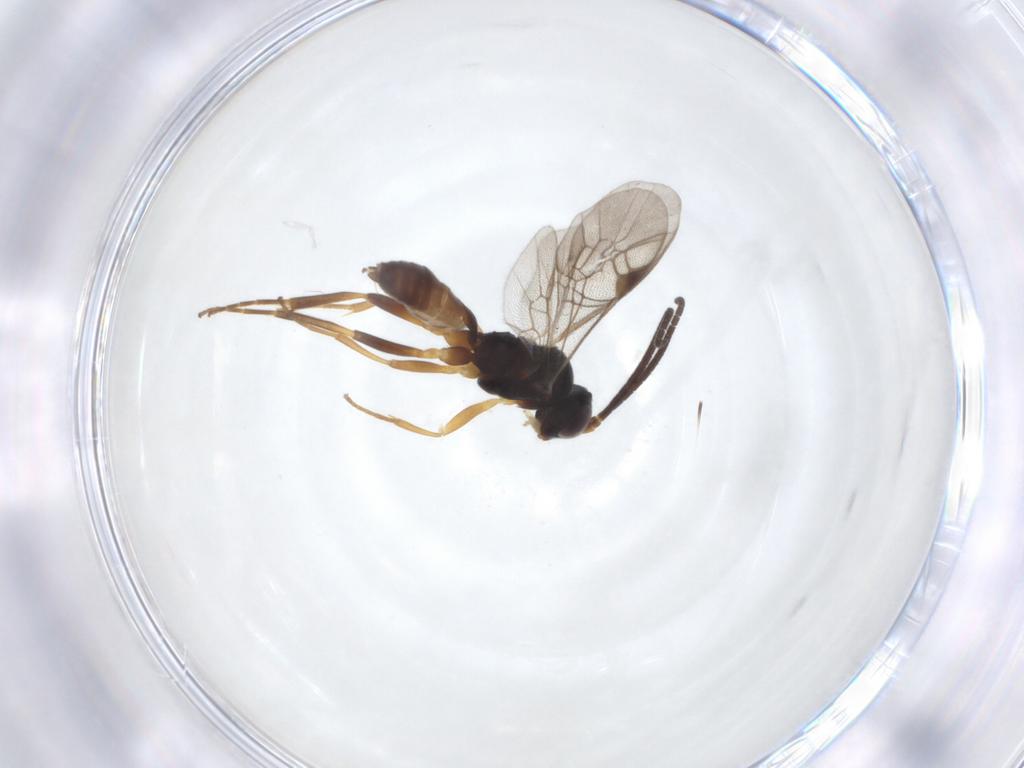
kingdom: Animalia
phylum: Arthropoda
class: Insecta
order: Hymenoptera
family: Ichneumonidae
